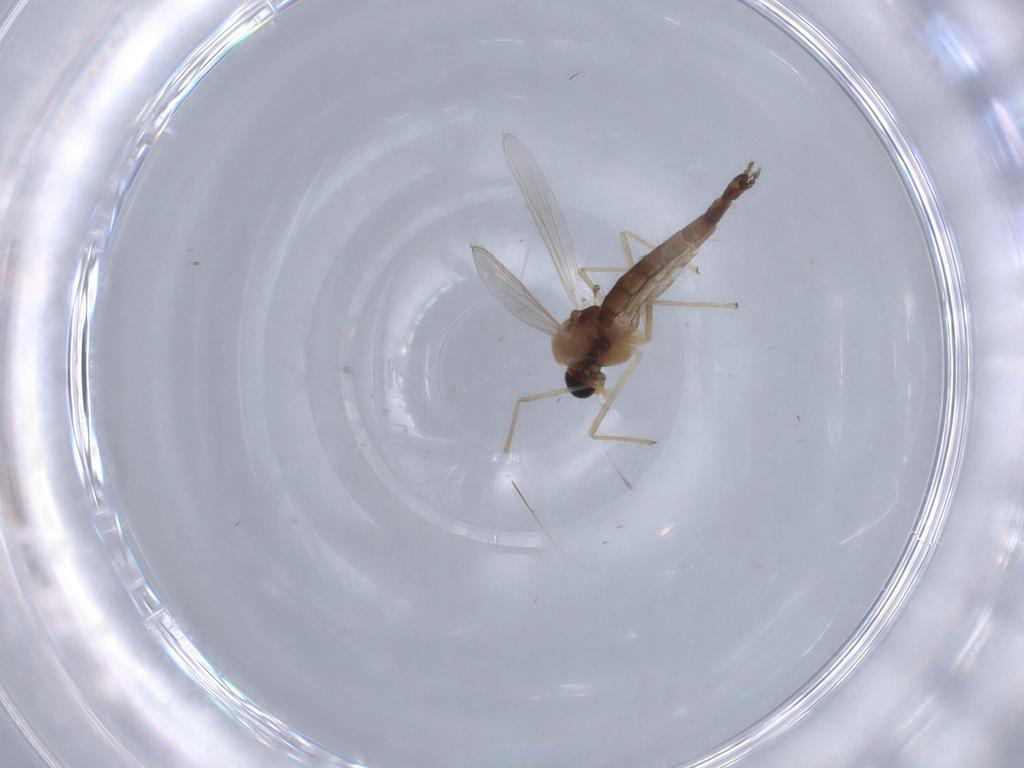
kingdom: Animalia
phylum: Arthropoda
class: Insecta
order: Diptera
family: Chironomidae
